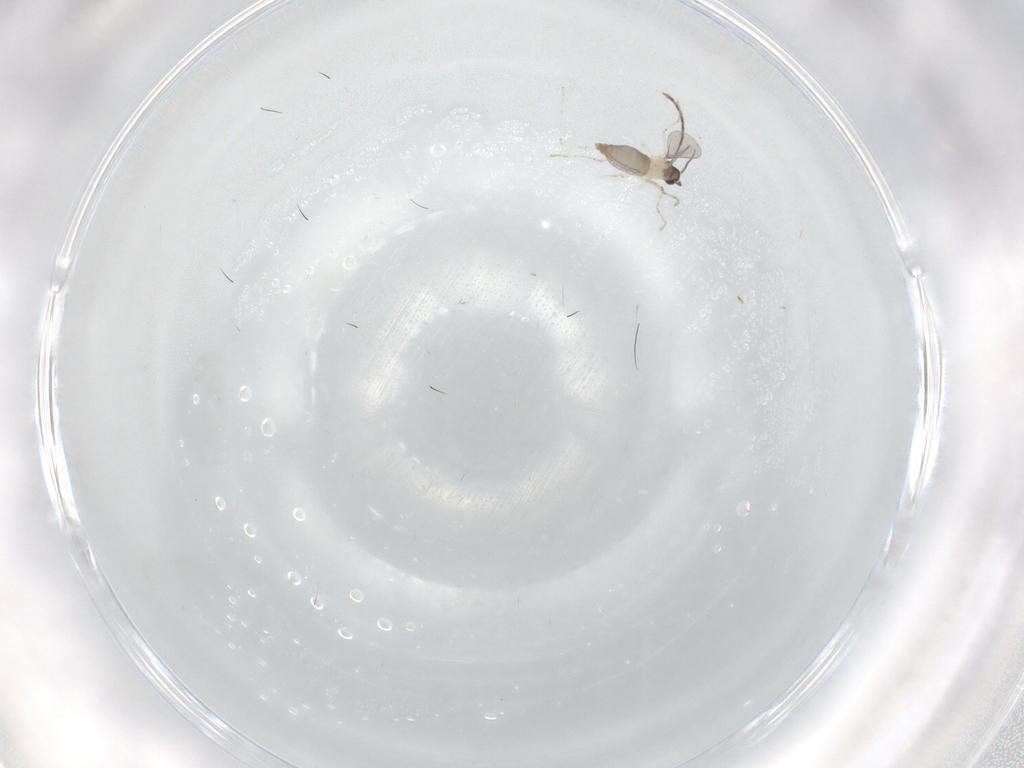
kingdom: Animalia
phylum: Arthropoda
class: Insecta
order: Diptera
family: Cecidomyiidae
